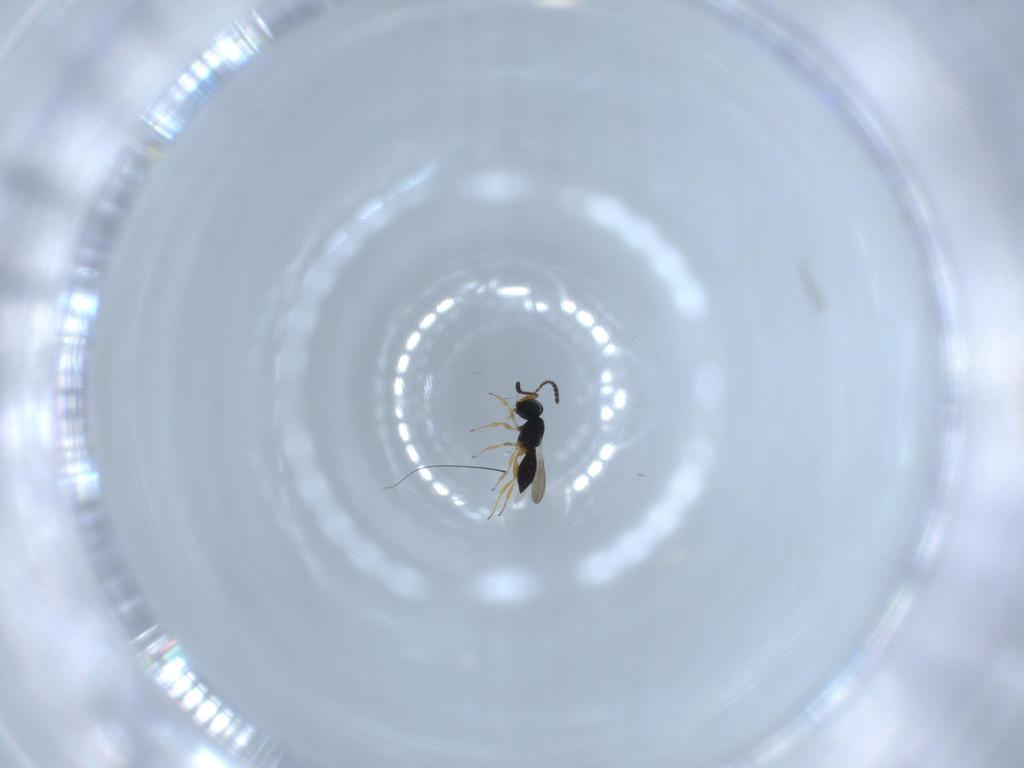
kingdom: Animalia
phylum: Arthropoda
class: Insecta
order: Hymenoptera
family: Scelionidae
